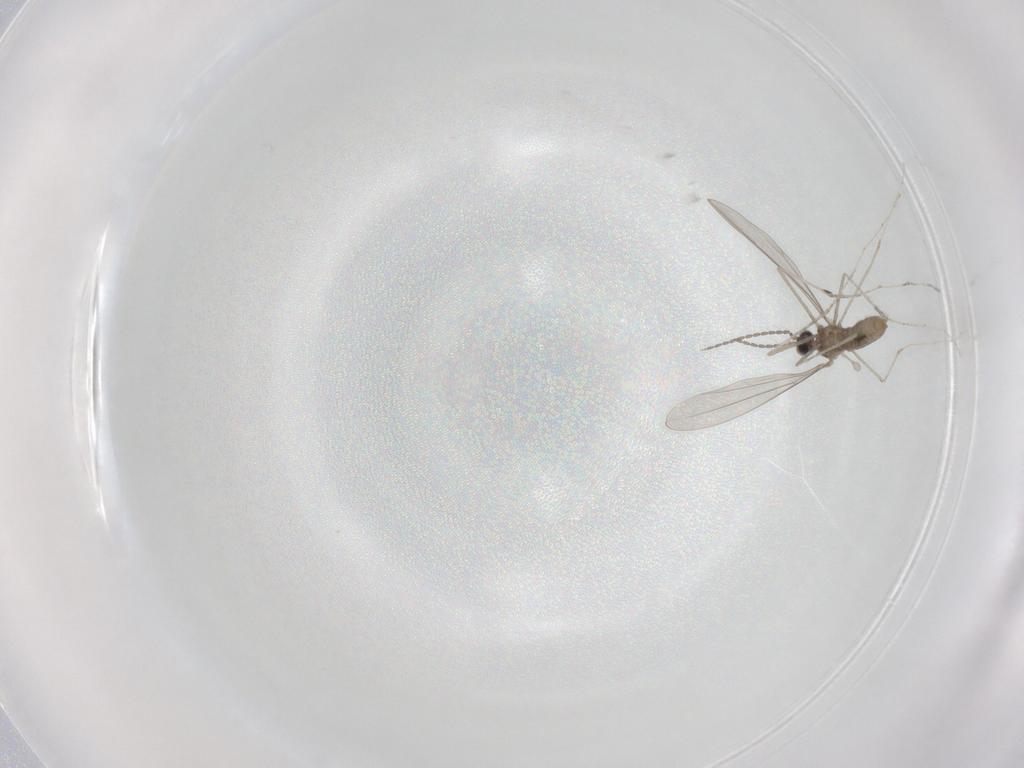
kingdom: Animalia
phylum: Arthropoda
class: Insecta
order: Diptera
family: Cecidomyiidae
